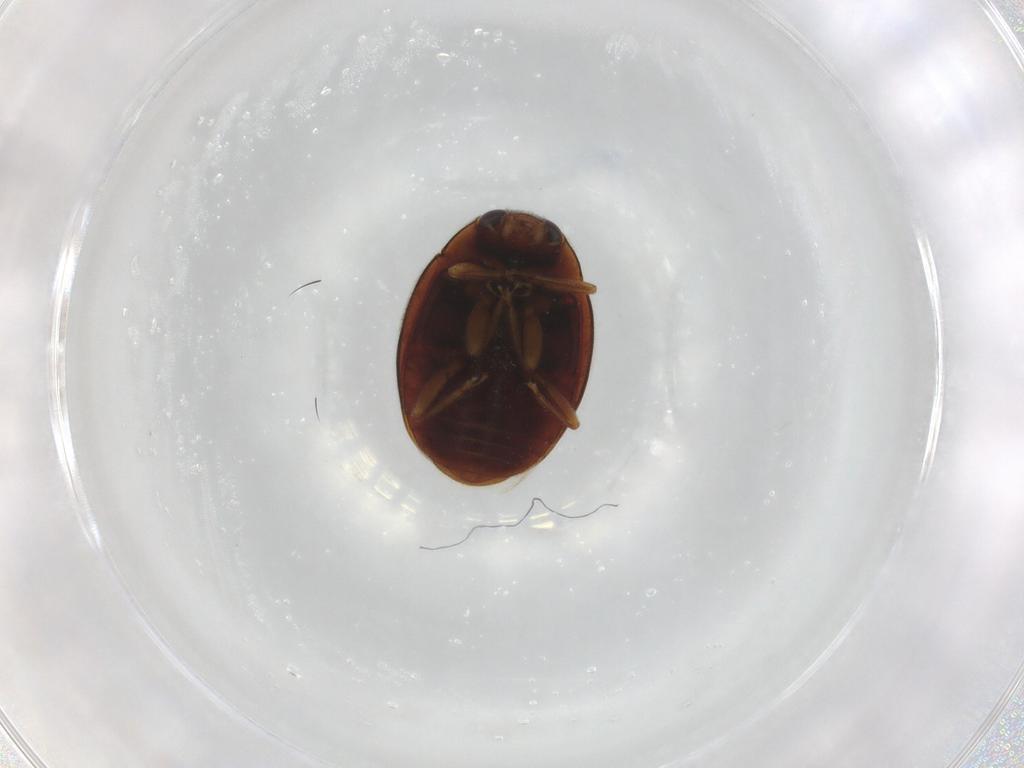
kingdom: Animalia
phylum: Arthropoda
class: Insecta
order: Coleoptera
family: Coccinellidae
